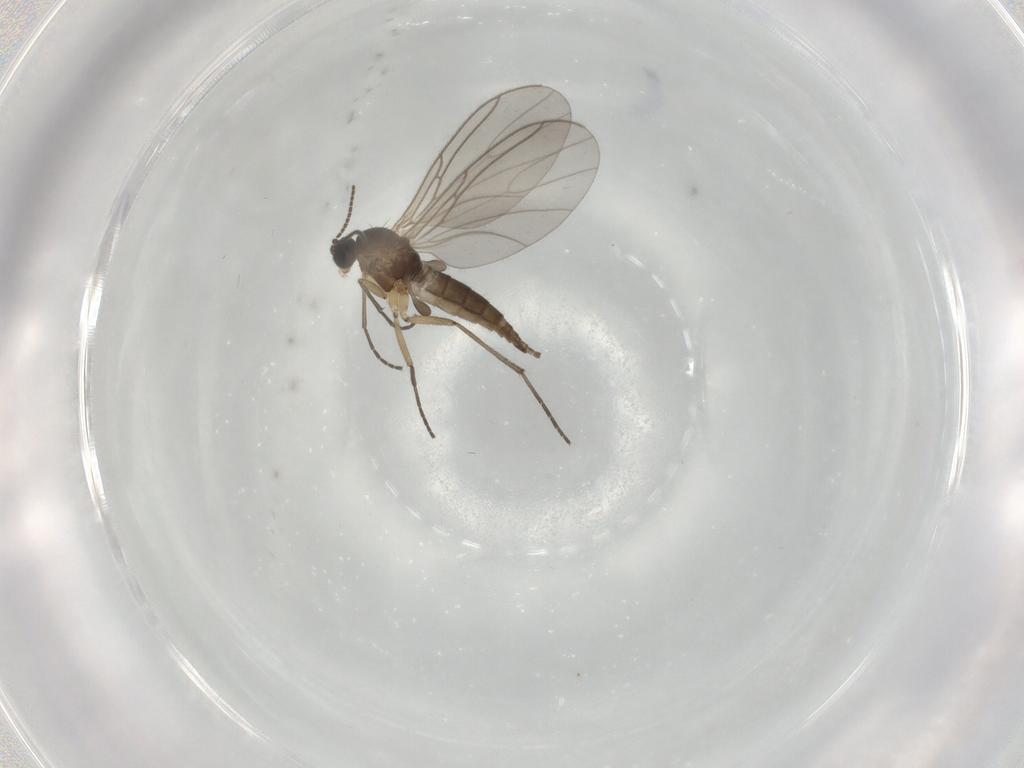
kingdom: Animalia
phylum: Arthropoda
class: Insecta
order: Diptera
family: Sciaridae
